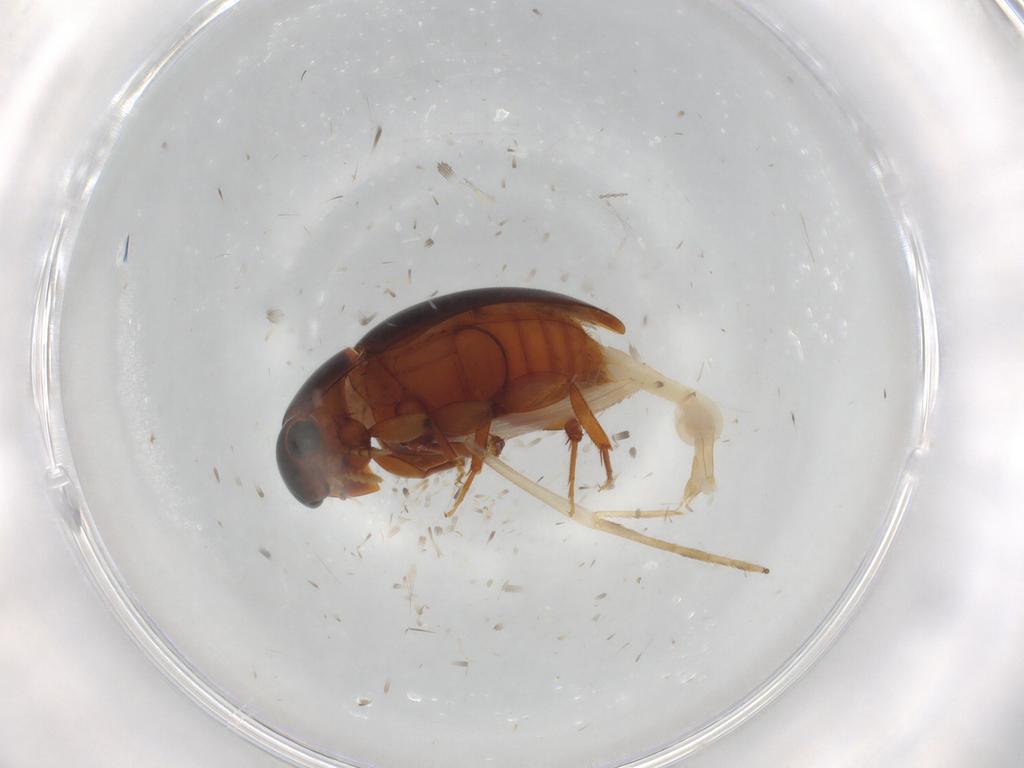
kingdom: Animalia
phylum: Arthropoda
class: Insecta
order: Coleoptera
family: Phalacridae
